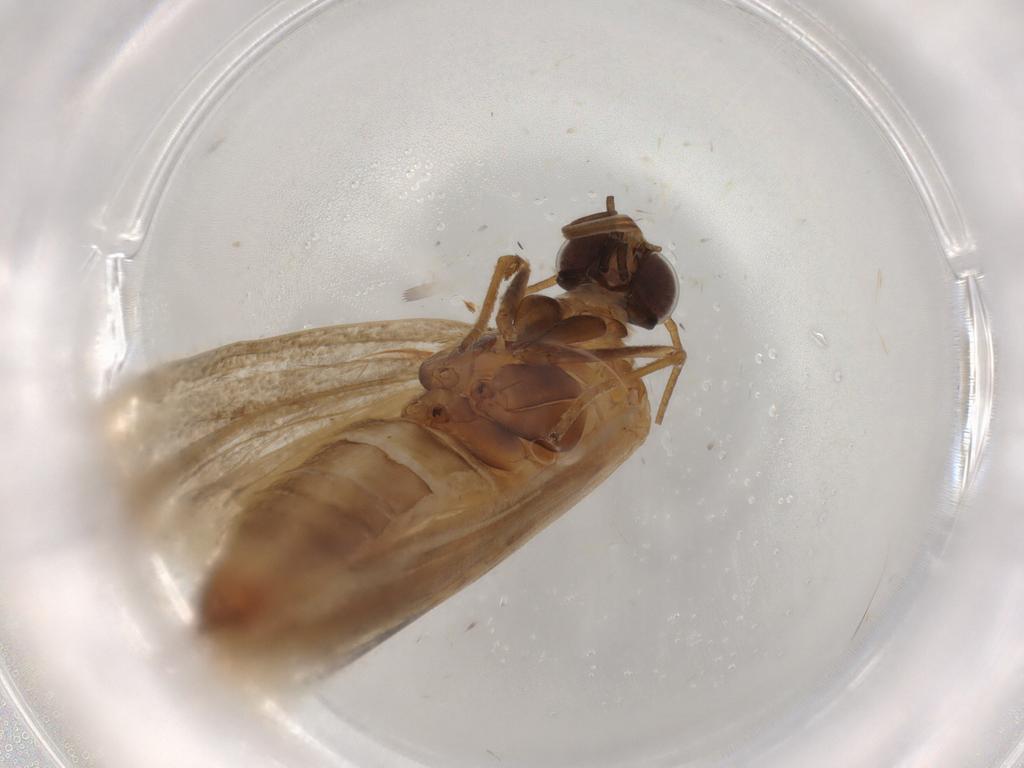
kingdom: Animalia
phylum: Arthropoda
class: Insecta
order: Lepidoptera
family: Pyralidae
